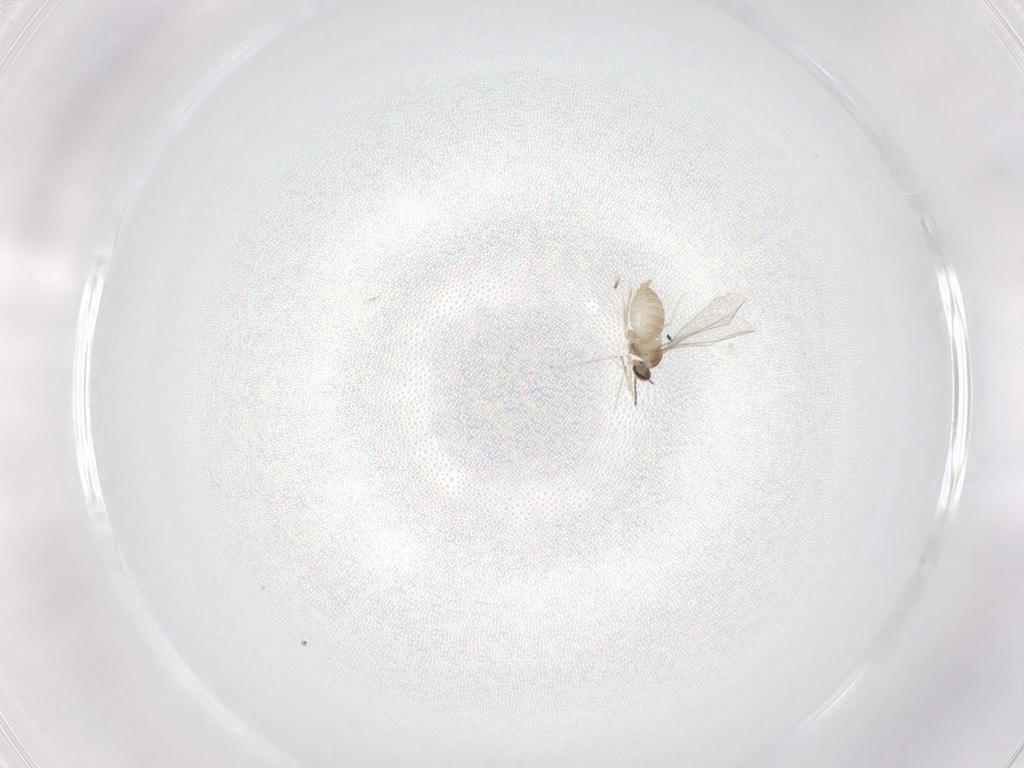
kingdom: Animalia
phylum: Arthropoda
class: Insecta
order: Diptera
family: Cecidomyiidae
